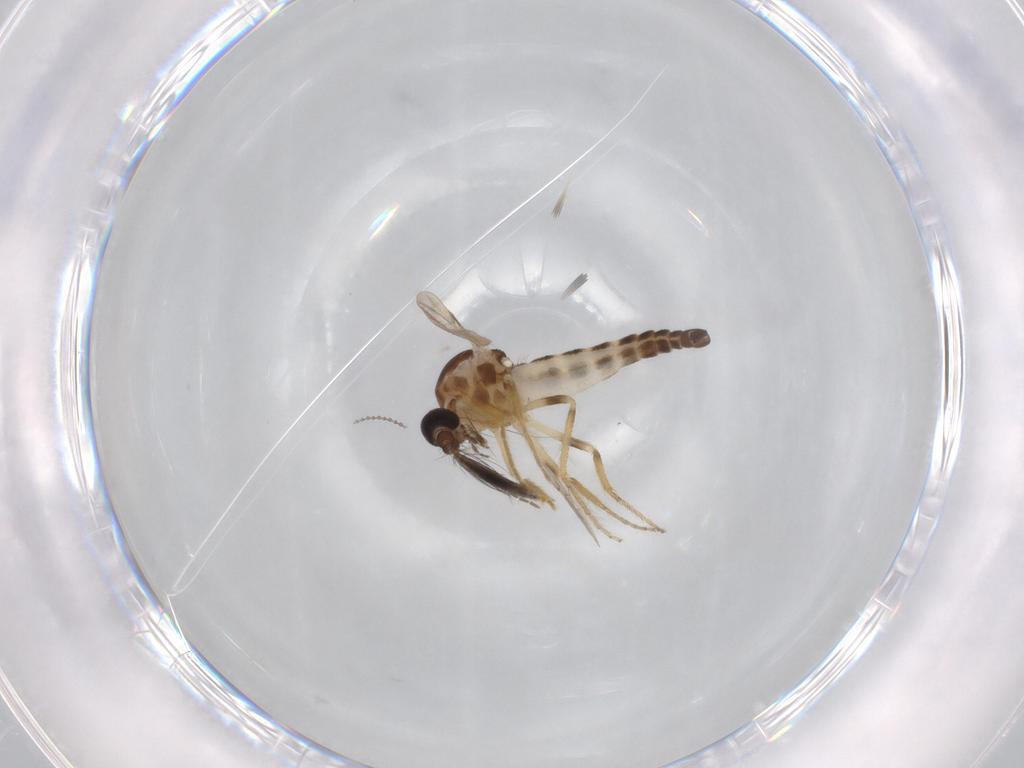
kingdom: Animalia
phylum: Arthropoda
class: Insecta
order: Diptera
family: Ceratopogonidae
